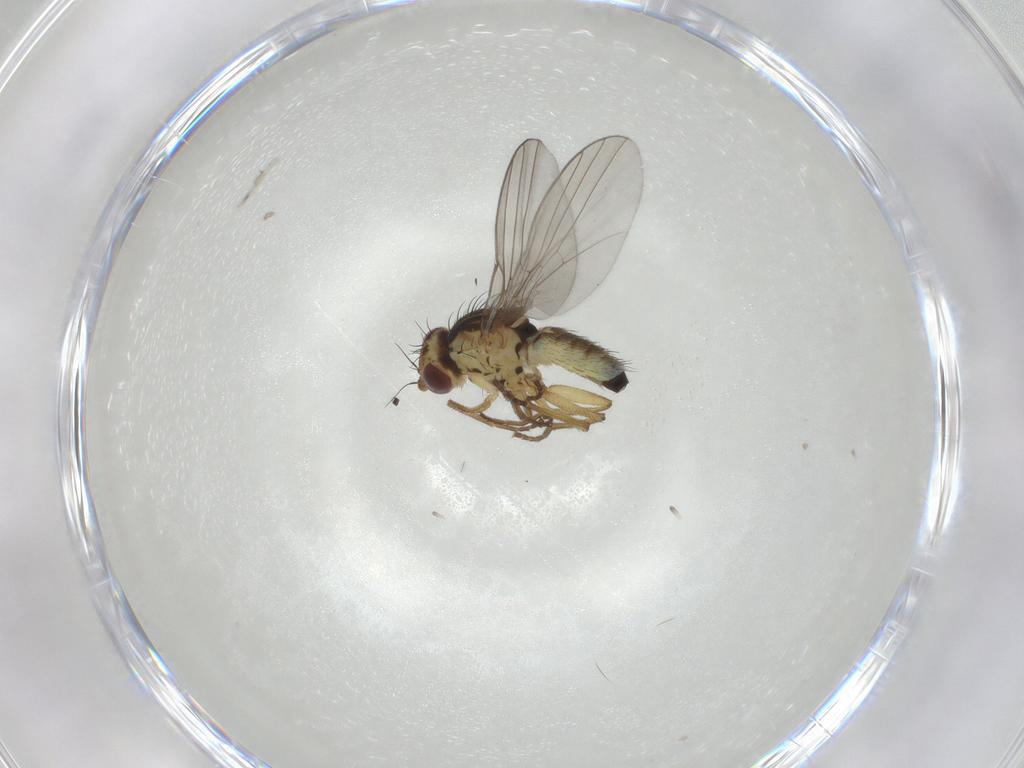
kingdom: Animalia
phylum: Arthropoda
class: Insecta
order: Diptera
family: Agromyzidae
